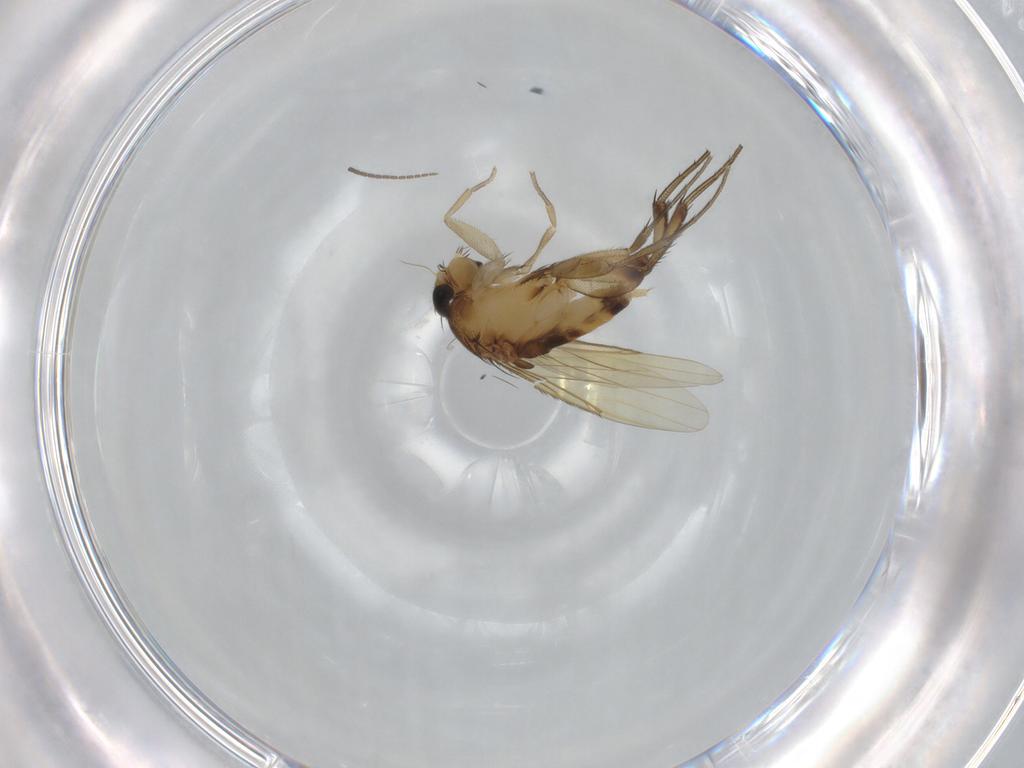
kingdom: Animalia
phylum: Arthropoda
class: Insecta
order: Diptera
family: Phoridae
